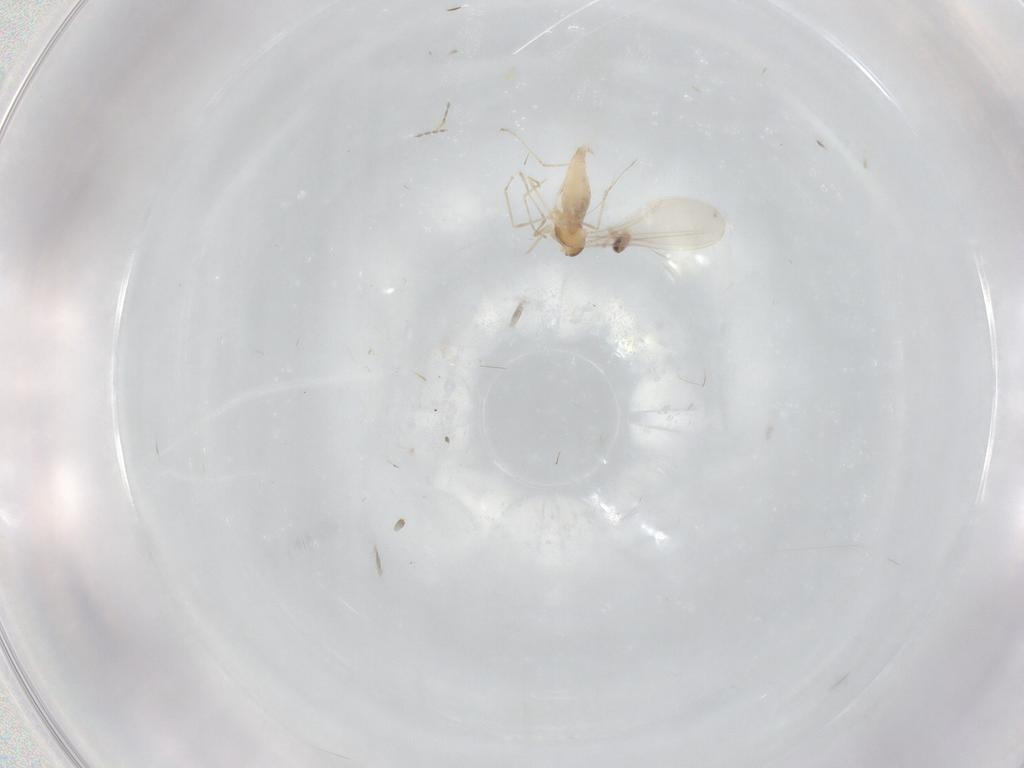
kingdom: Animalia
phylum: Arthropoda
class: Insecta
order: Diptera
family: Cecidomyiidae
